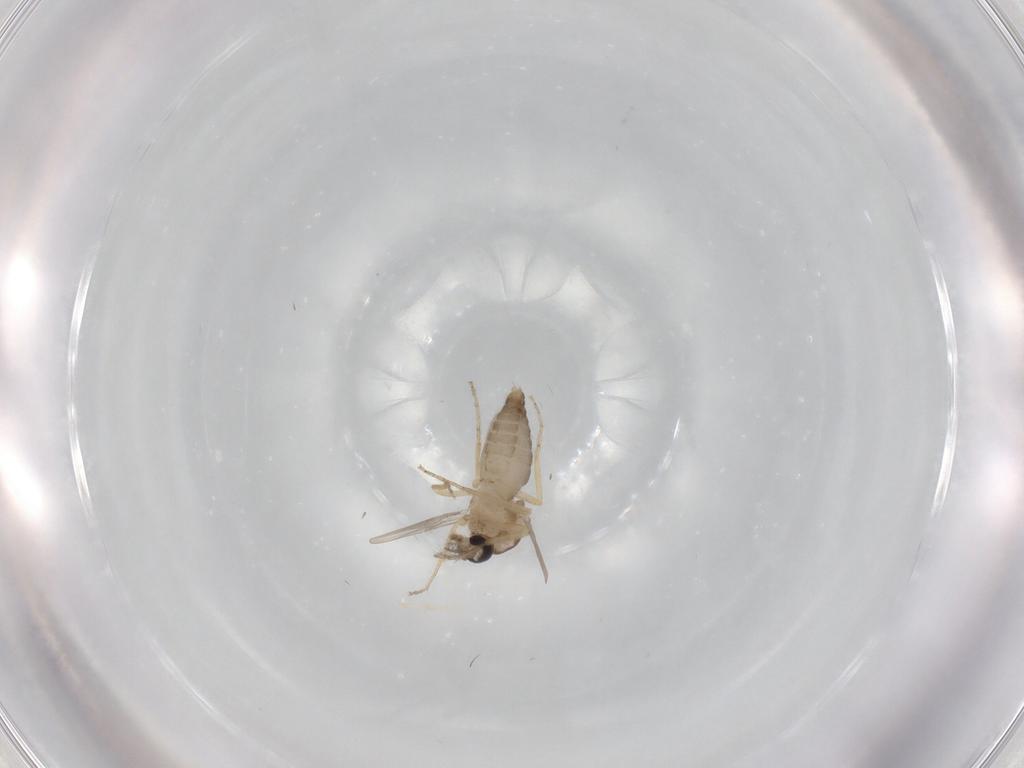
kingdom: Animalia
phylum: Arthropoda
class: Insecta
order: Diptera
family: Ceratopogonidae
